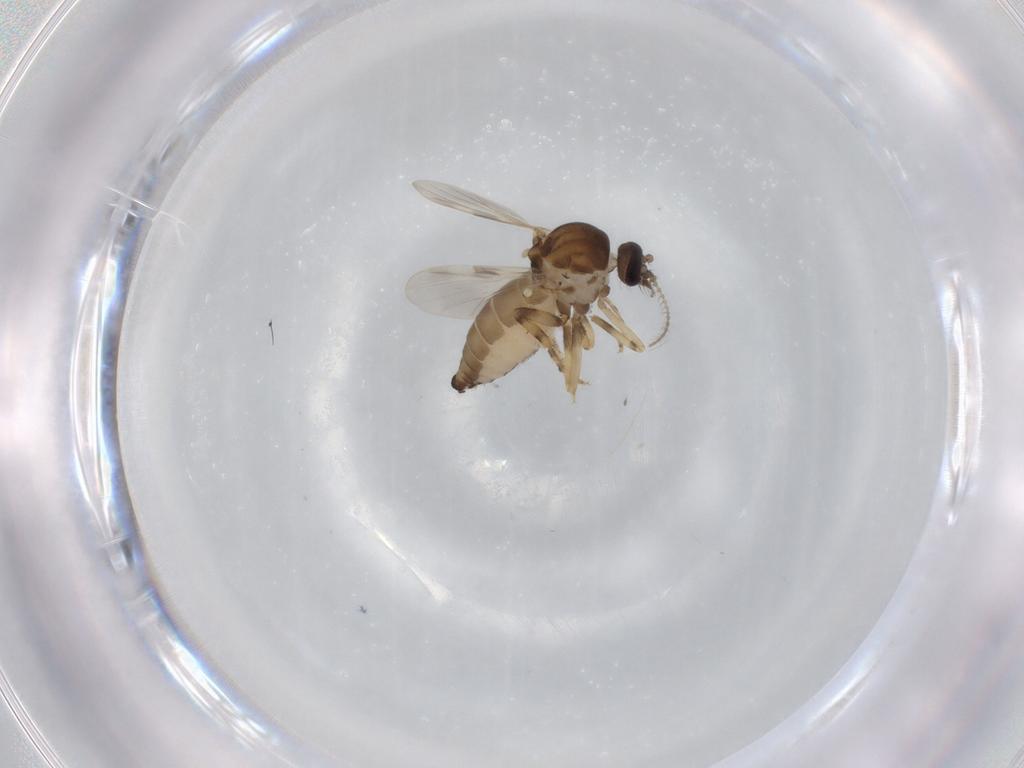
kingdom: Animalia
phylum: Arthropoda
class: Insecta
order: Diptera
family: Ceratopogonidae
